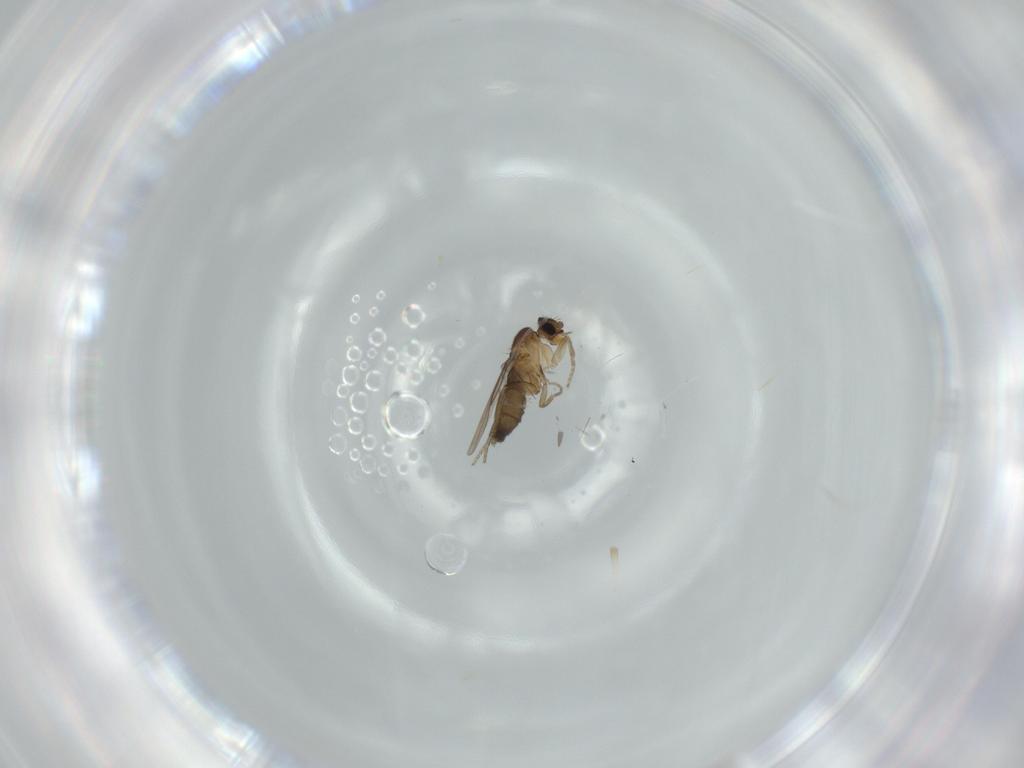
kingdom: Animalia
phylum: Arthropoda
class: Insecta
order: Diptera
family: Phoridae
